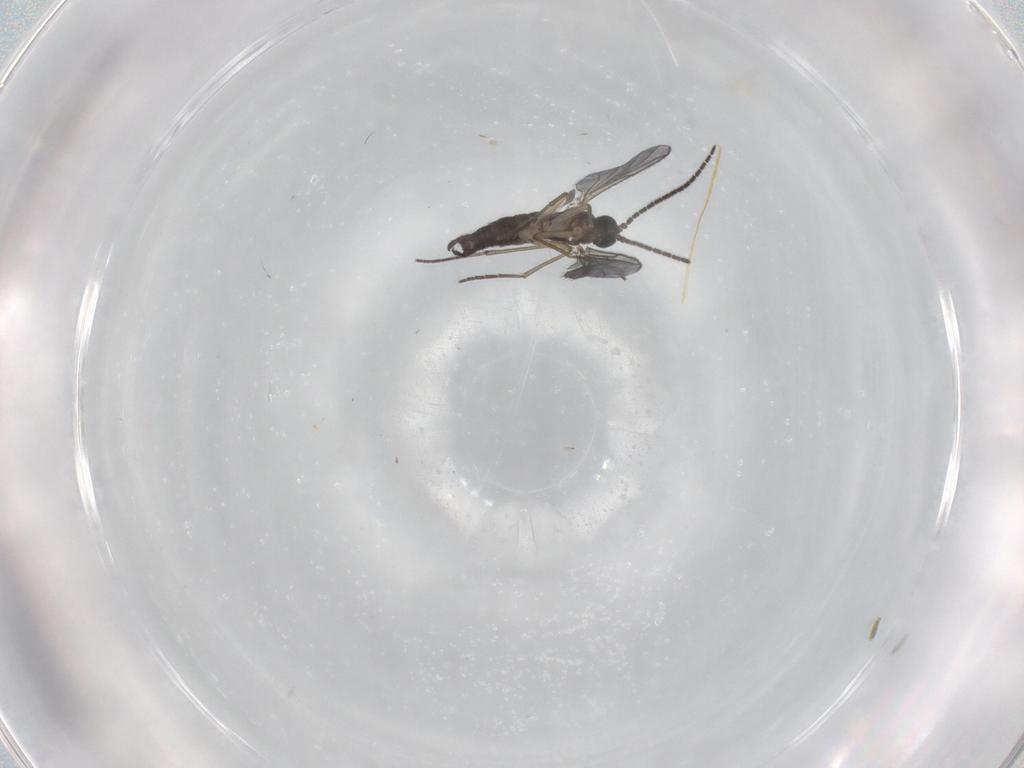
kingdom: Animalia
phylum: Arthropoda
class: Insecta
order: Diptera
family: Sciaridae
